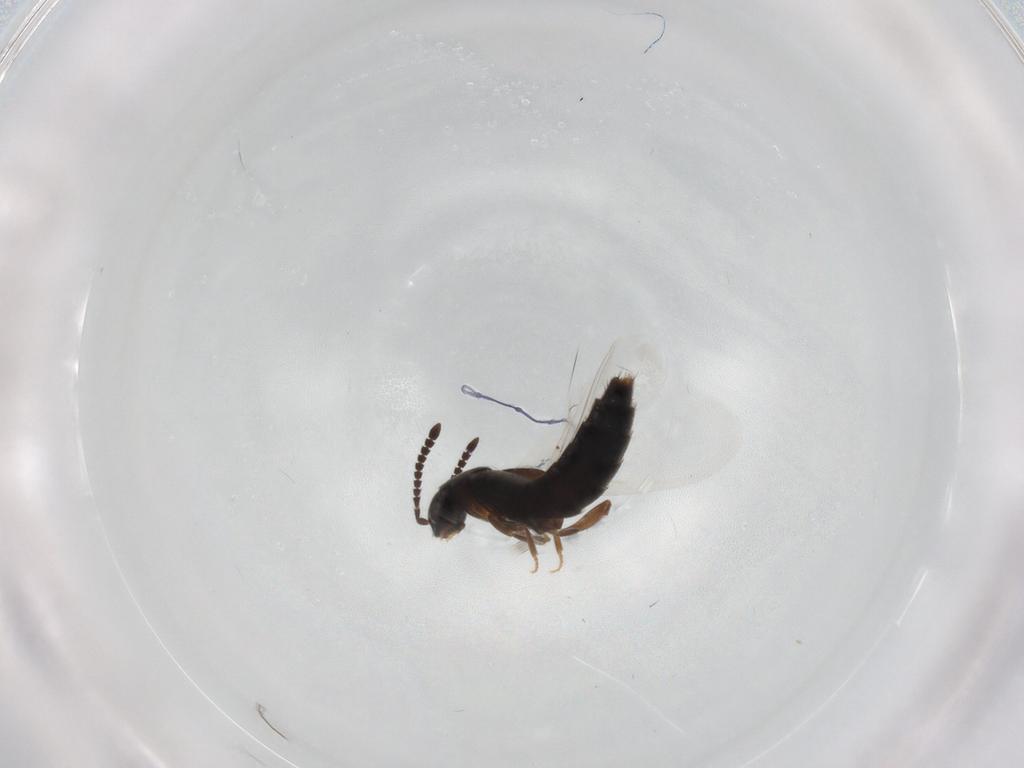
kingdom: Animalia
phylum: Arthropoda
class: Insecta
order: Coleoptera
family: Staphylinidae
